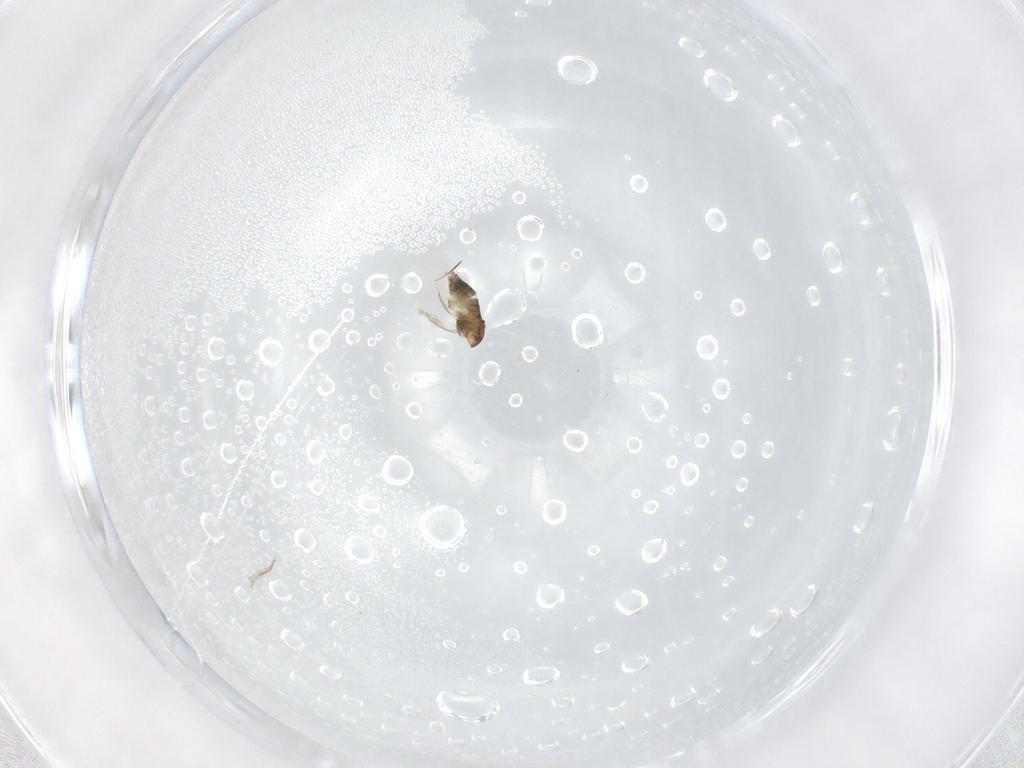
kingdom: Animalia
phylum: Arthropoda
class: Insecta
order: Diptera
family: Chironomidae
